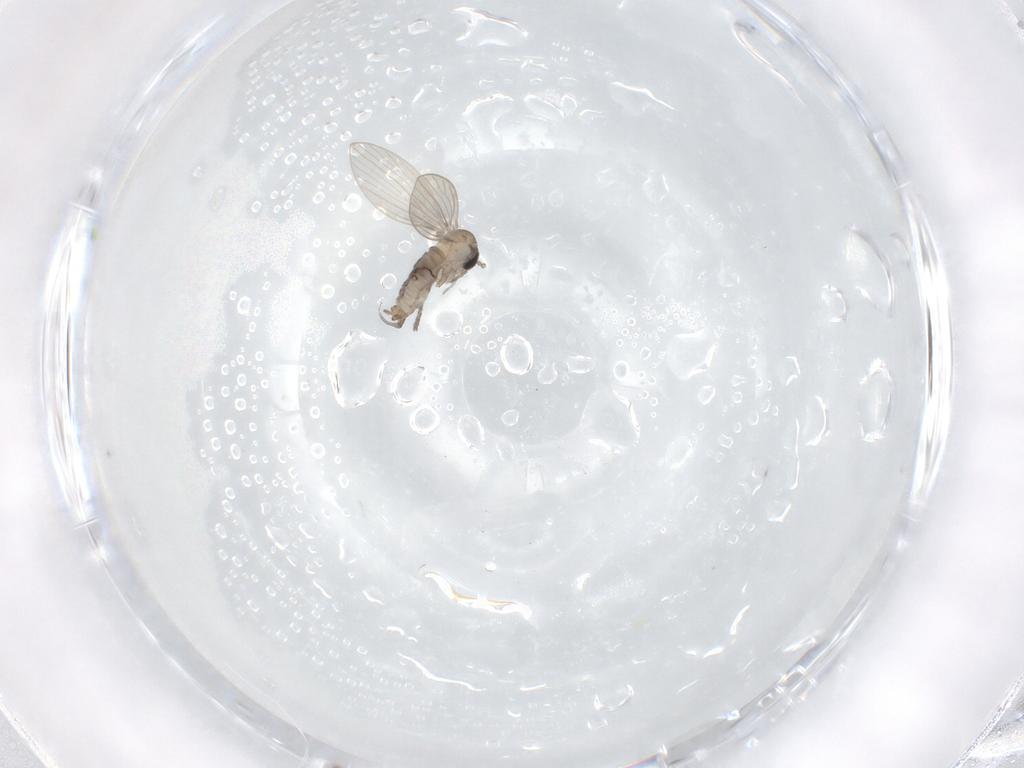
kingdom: Animalia
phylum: Arthropoda
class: Insecta
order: Diptera
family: Psychodidae
